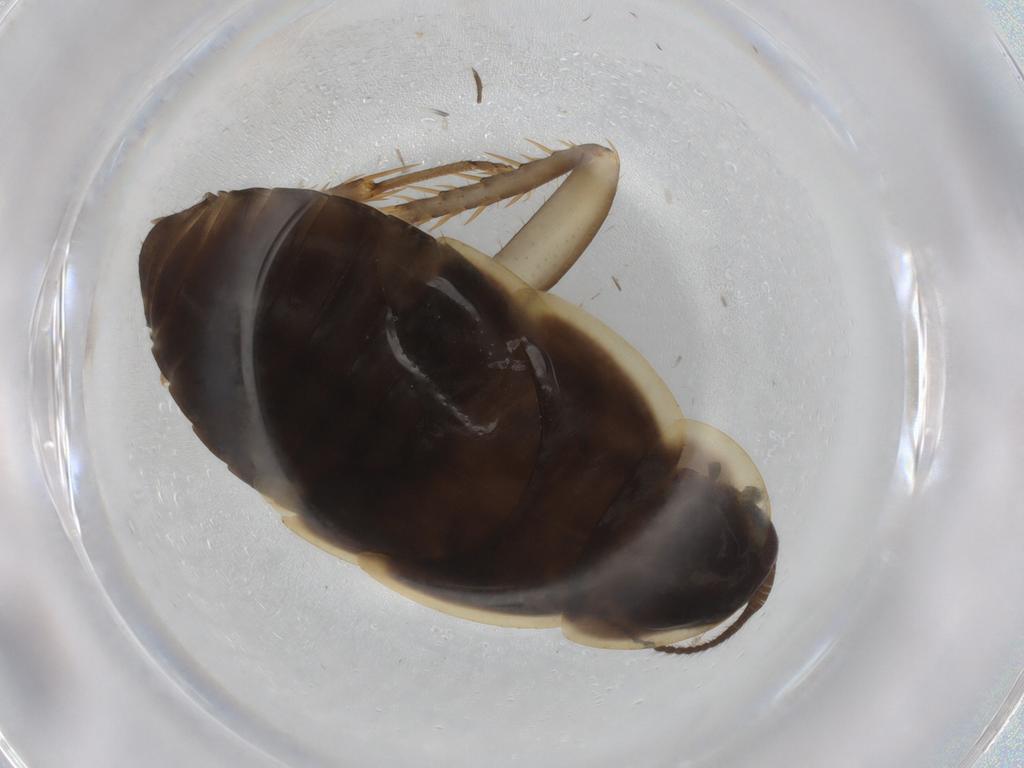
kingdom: Animalia
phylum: Arthropoda
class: Insecta
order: Blattodea
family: Ectobiidae
